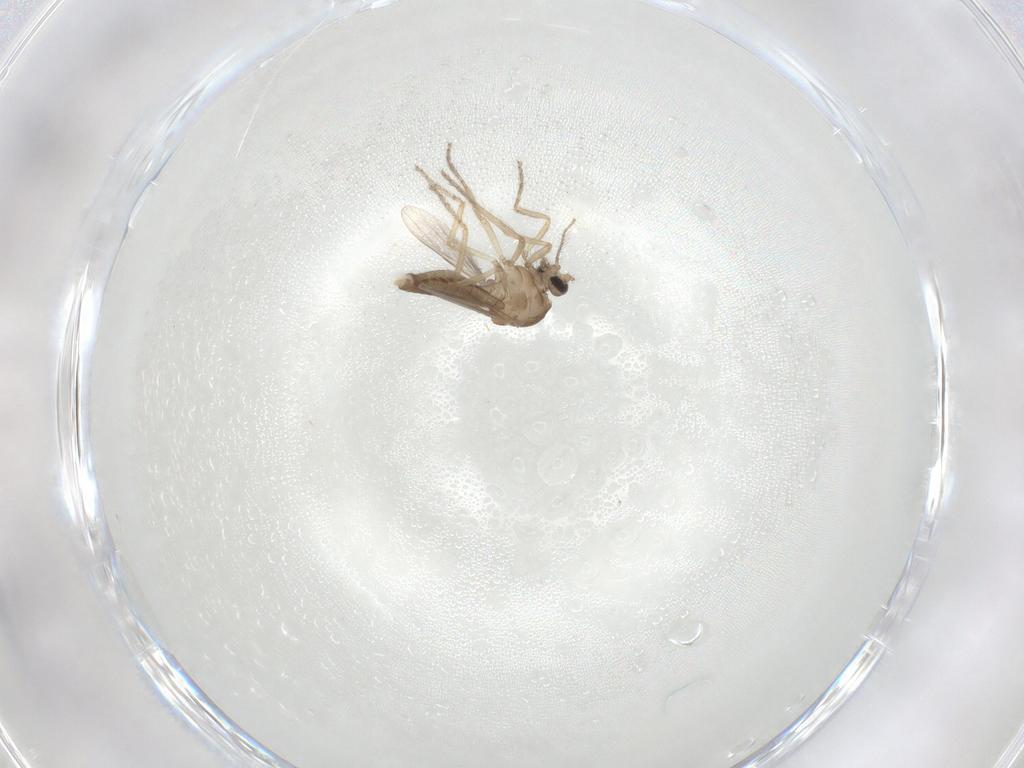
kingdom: Animalia
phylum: Arthropoda
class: Insecta
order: Diptera
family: Ceratopogonidae
